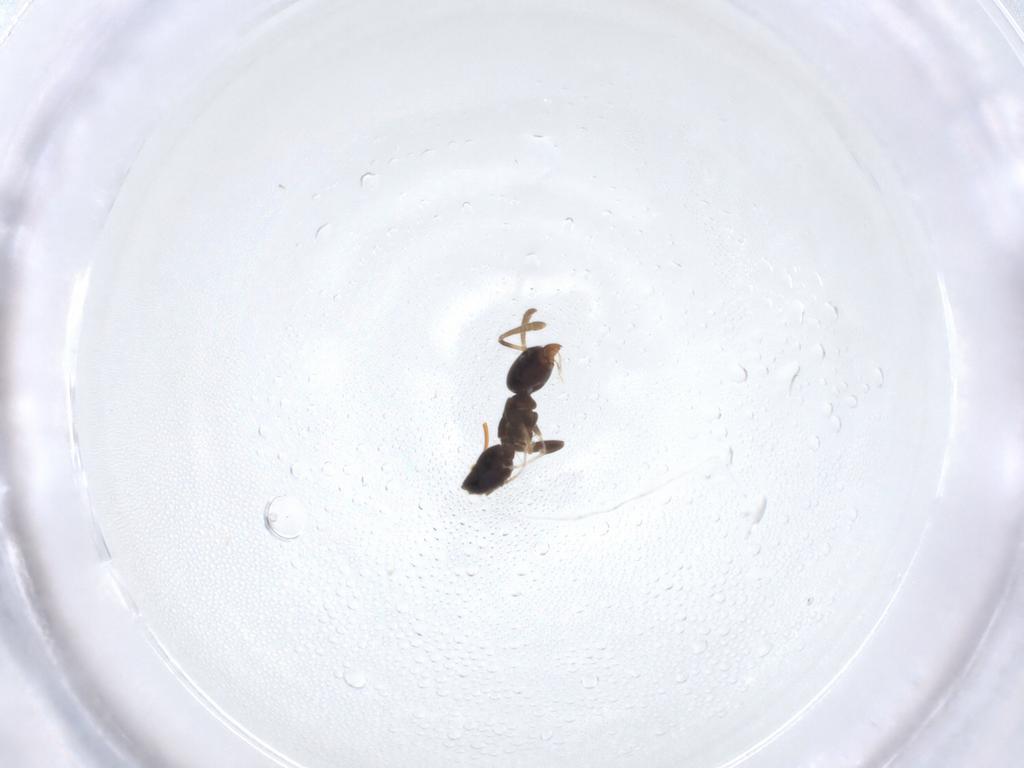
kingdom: Animalia
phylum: Arthropoda
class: Insecta
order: Hymenoptera
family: Formicidae
